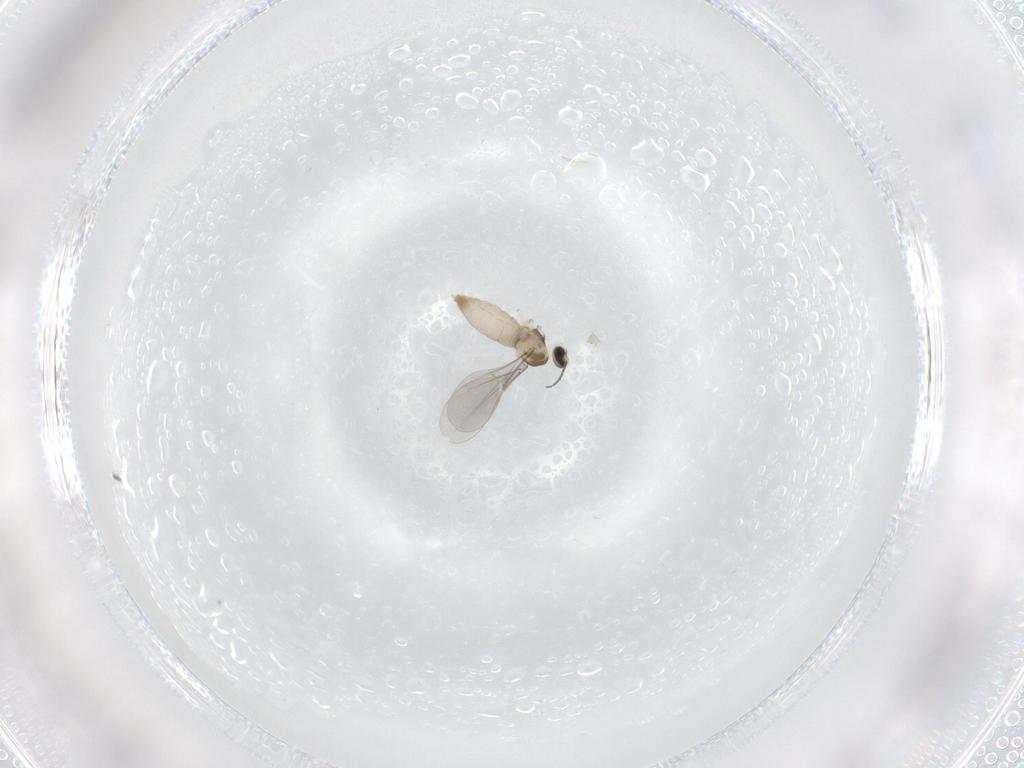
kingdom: Animalia
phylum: Arthropoda
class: Insecta
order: Diptera
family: Cecidomyiidae
